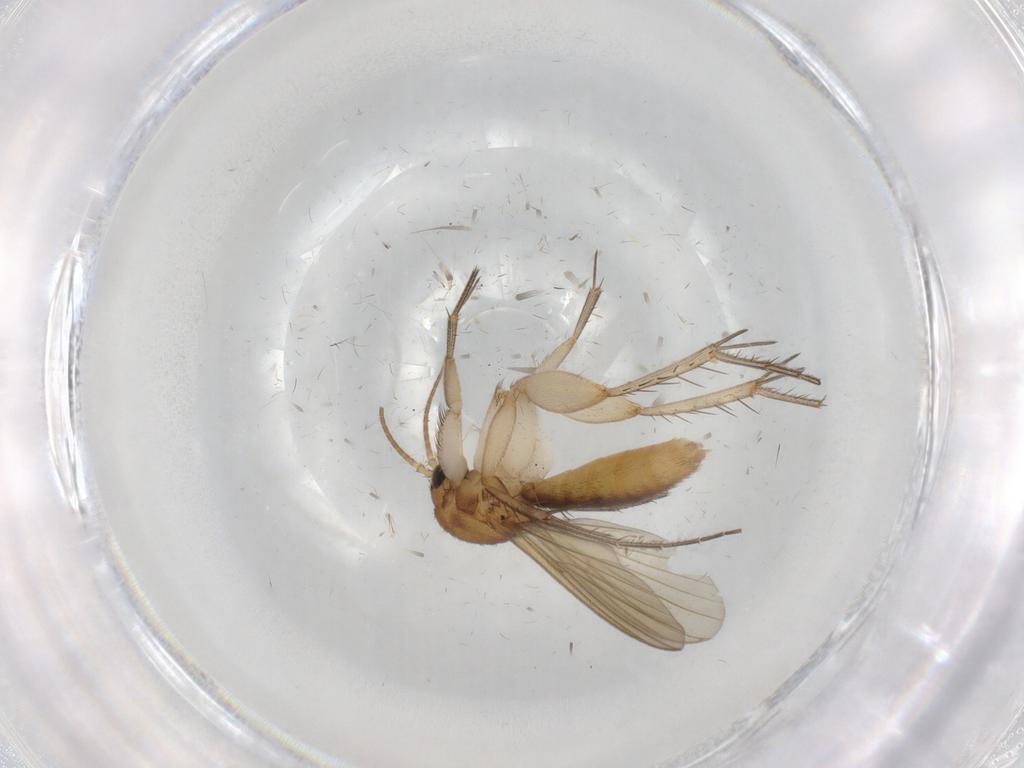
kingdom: Animalia
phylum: Arthropoda
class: Insecta
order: Diptera
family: Mycetophilidae
